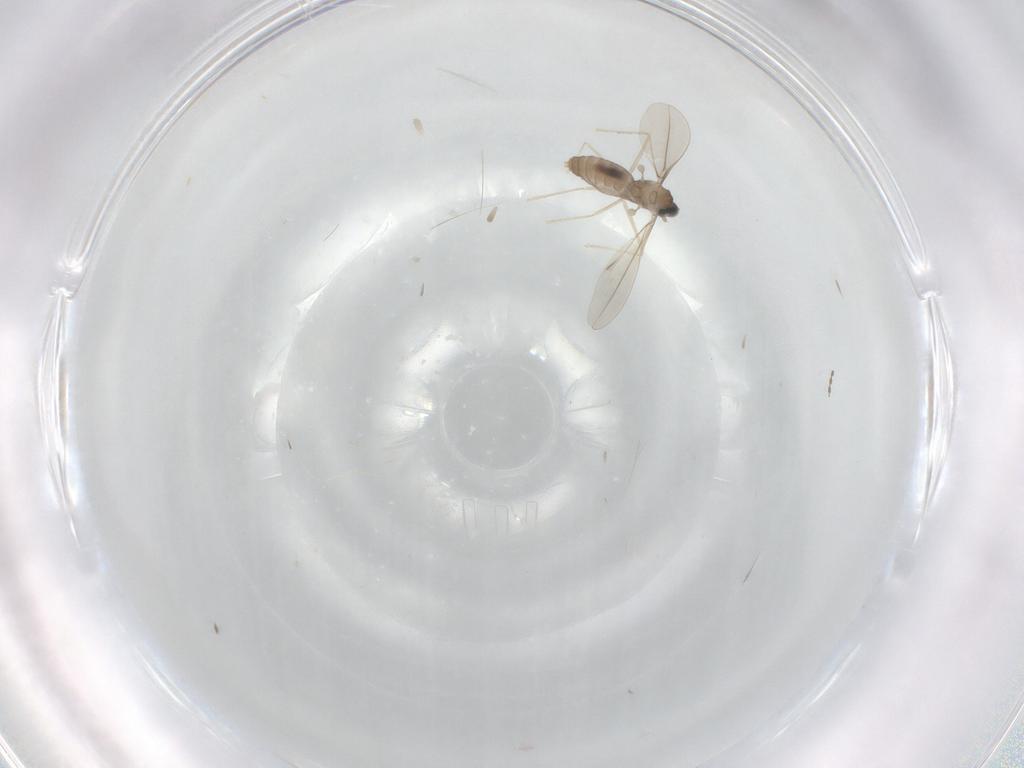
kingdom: Animalia
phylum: Arthropoda
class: Insecta
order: Diptera
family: Cecidomyiidae
